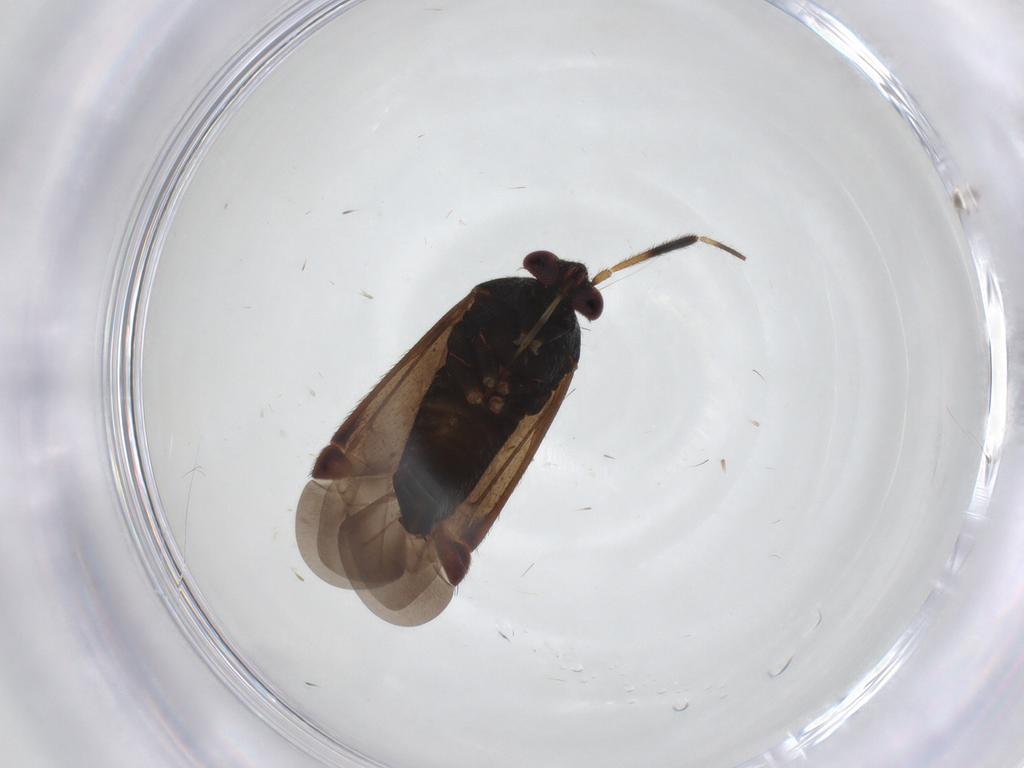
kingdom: Animalia
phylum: Arthropoda
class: Insecta
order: Hemiptera
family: Miridae
